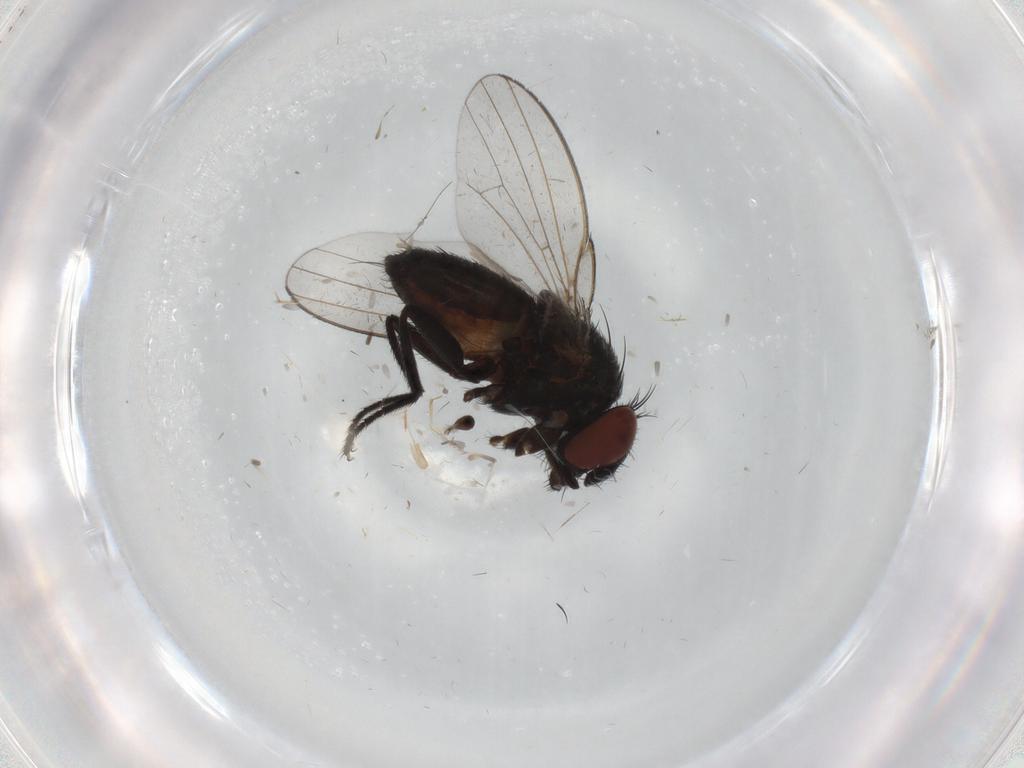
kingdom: Animalia
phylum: Arthropoda
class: Insecta
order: Diptera
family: Milichiidae
